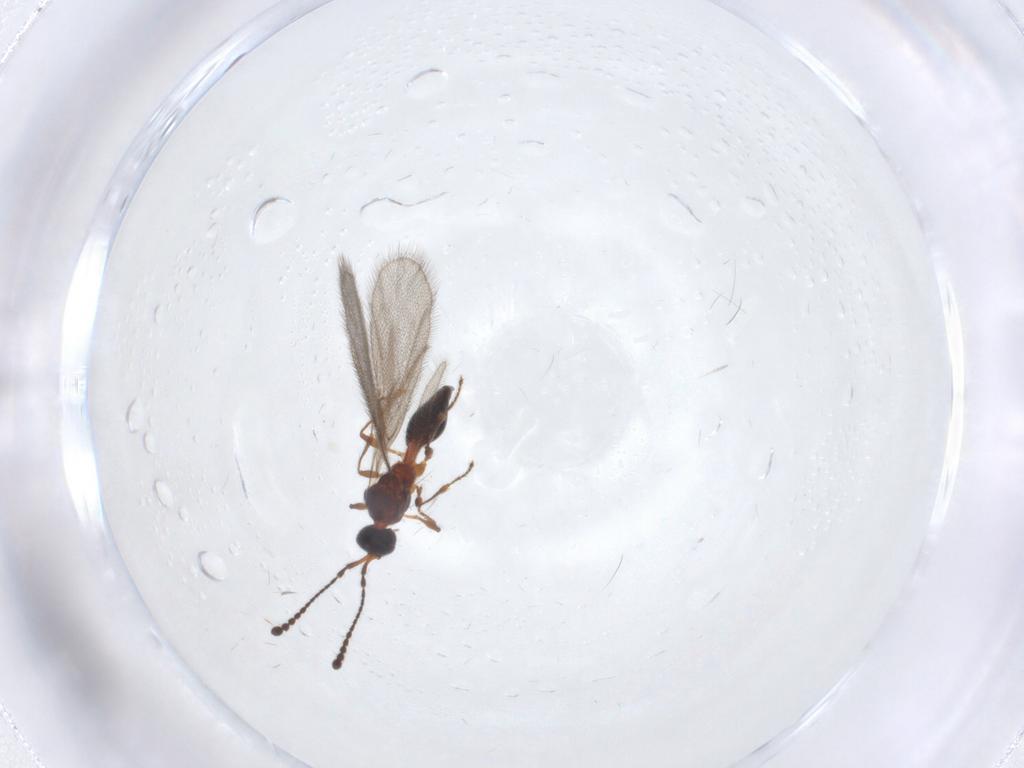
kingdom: Animalia
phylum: Arthropoda
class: Insecta
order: Hymenoptera
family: Diapriidae
